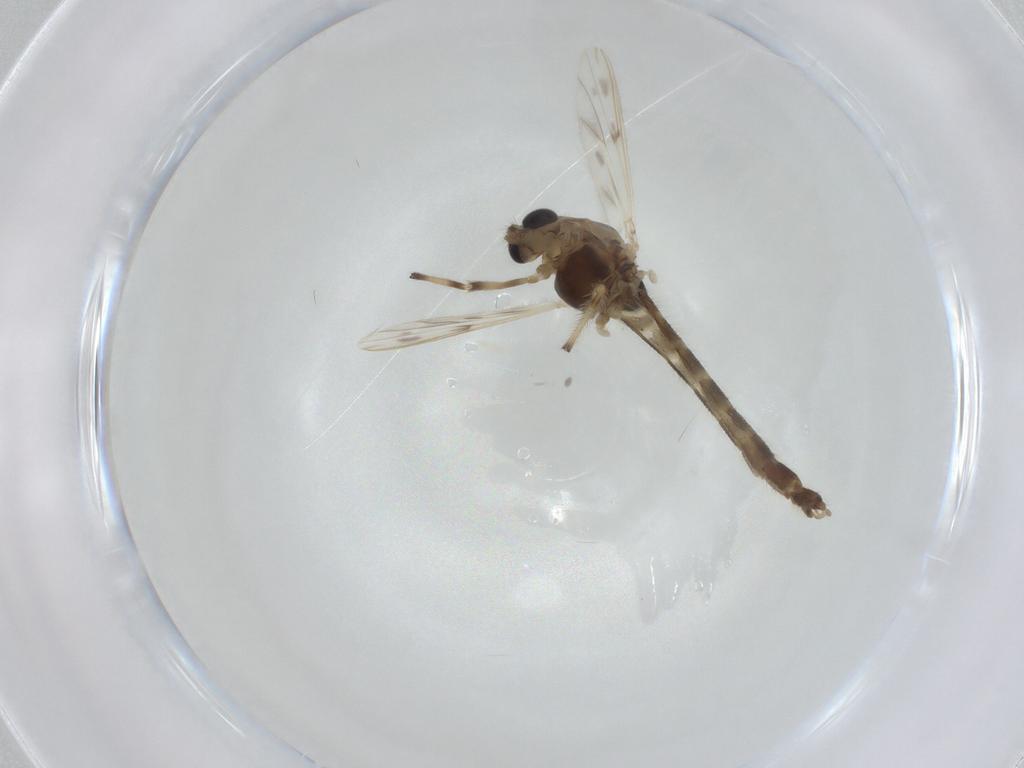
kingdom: Animalia
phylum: Arthropoda
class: Insecta
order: Diptera
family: Chironomidae
